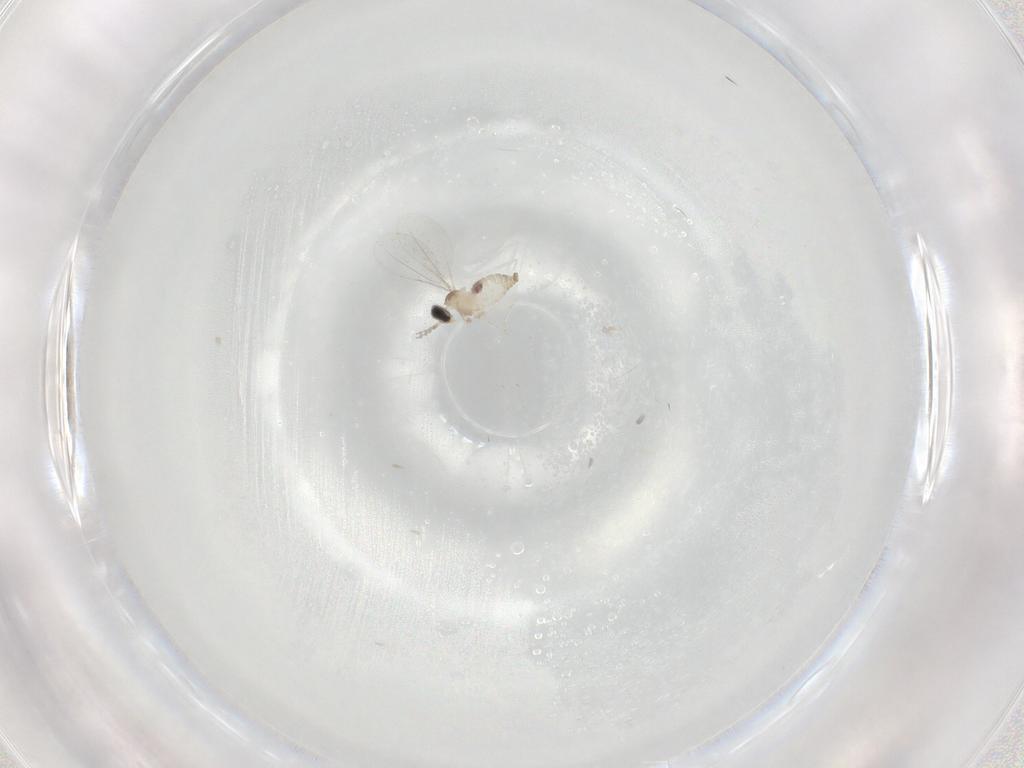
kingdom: Animalia
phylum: Arthropoda
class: Insecta
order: Diptera
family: Cecidomyiidae
